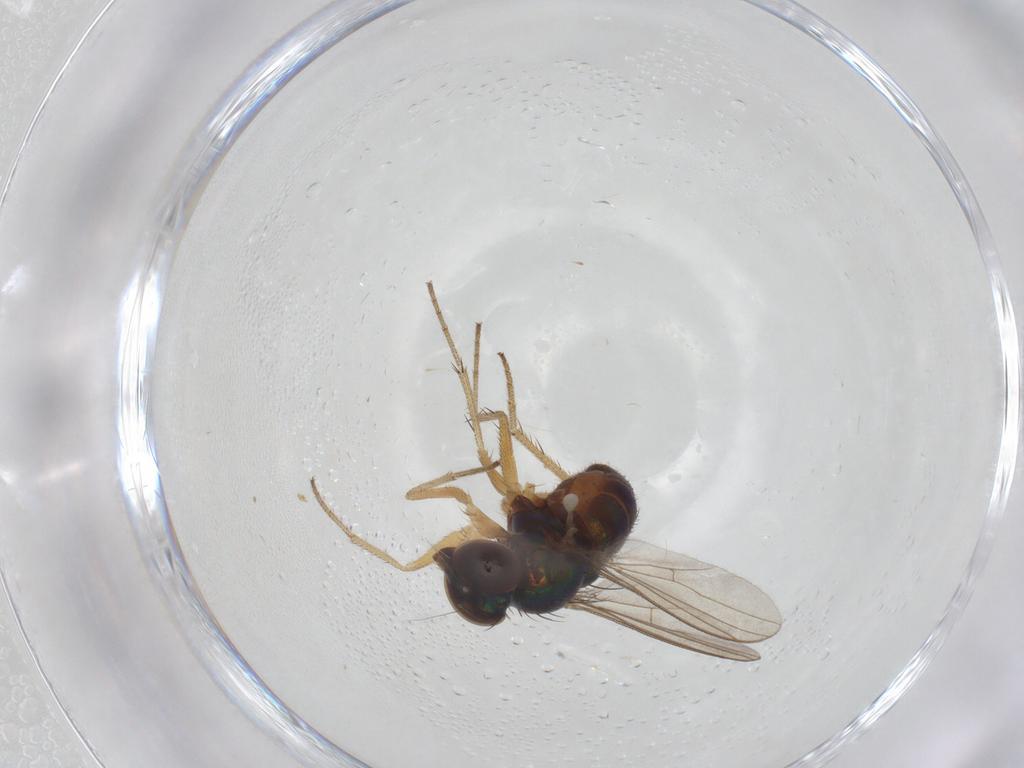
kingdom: Animalia
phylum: Arthropoda
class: Insecta
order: Diptera
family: Dolichopodidae
